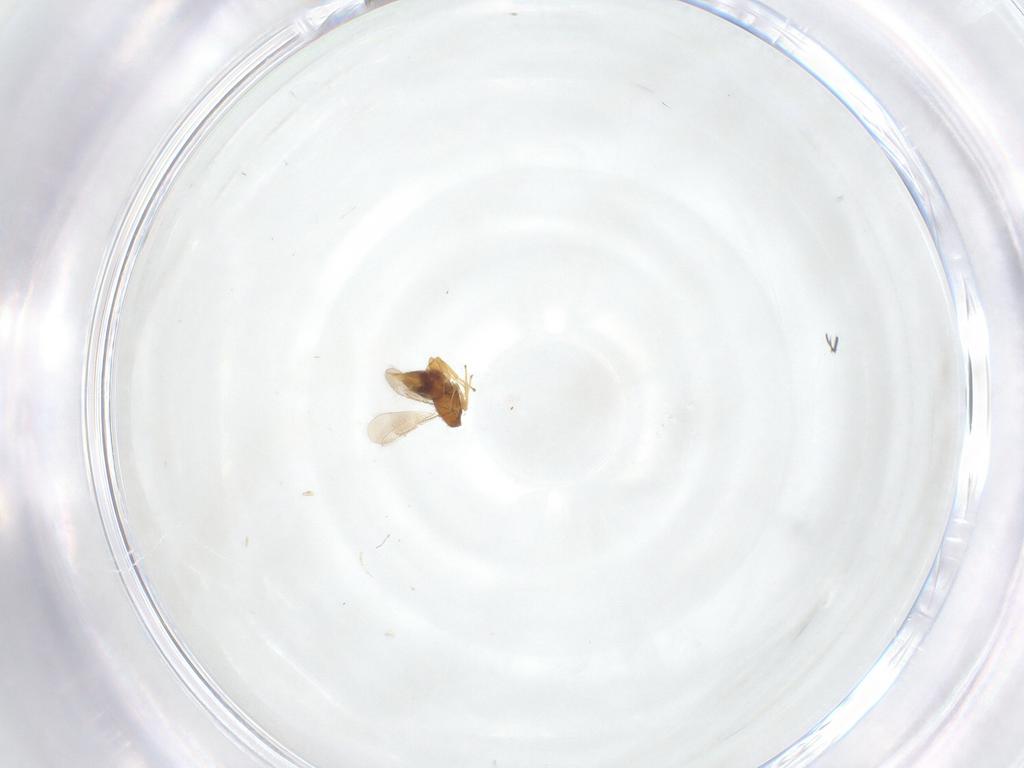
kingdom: Animalia
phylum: Arthropoda
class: Insecta
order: Hymenoptera
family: Aphelinidae
